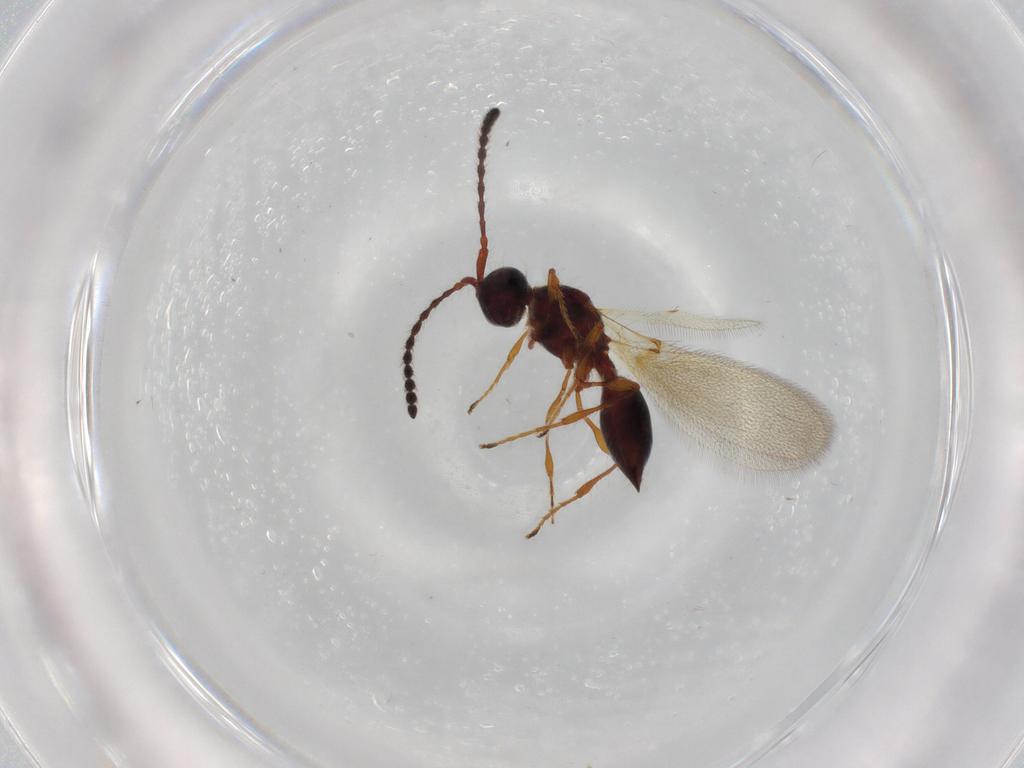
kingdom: Animalia
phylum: Arthropoda
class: Insecta
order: Hymenoptera
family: Diapriidae
